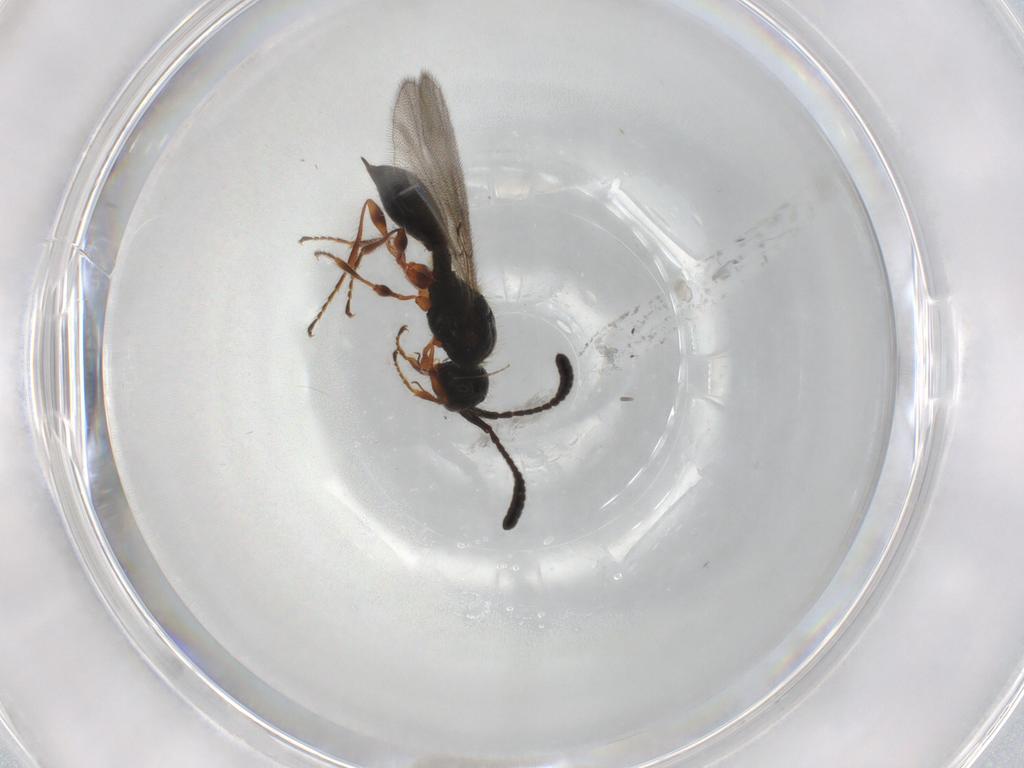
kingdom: Animalia
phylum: Arthropoda
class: Insecta
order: Hymenoptera
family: Diapriidae
